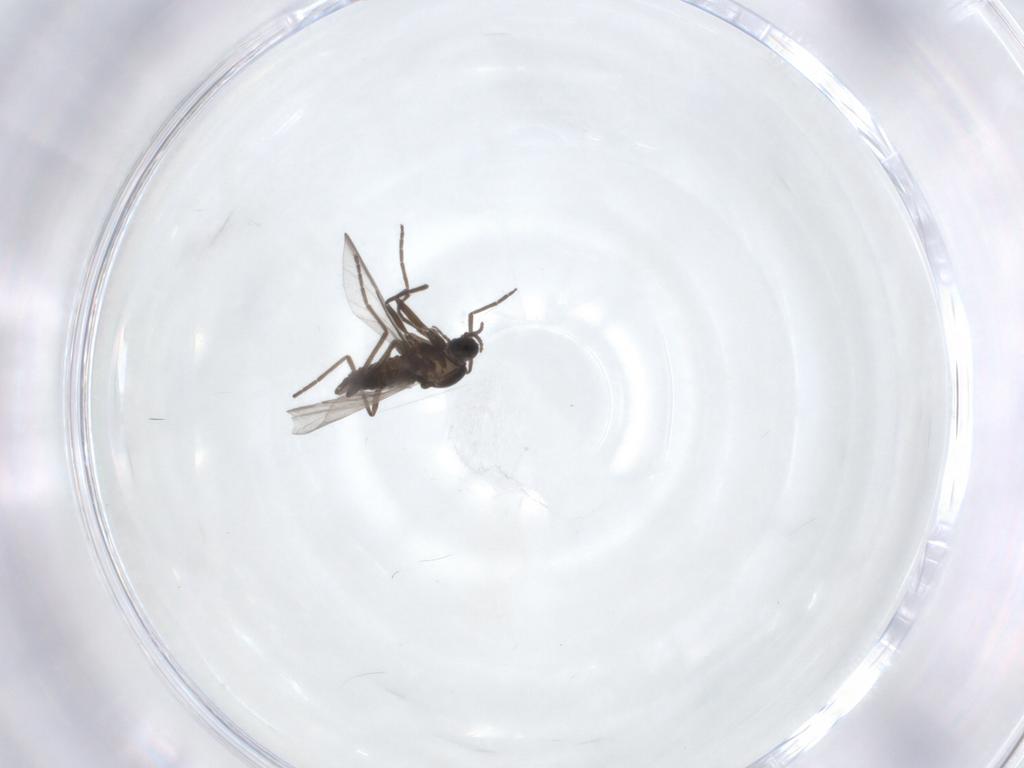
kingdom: Animalia
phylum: Arthropoda
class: Insecta
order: Diptera
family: Cecidomyiidae
